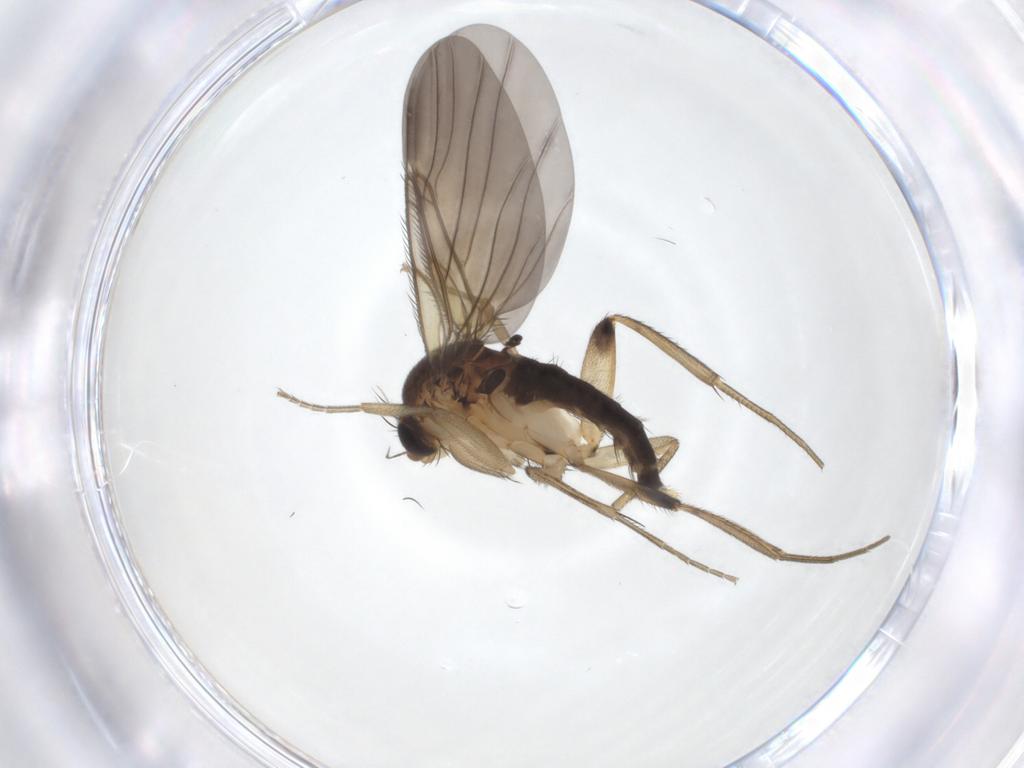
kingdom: Animalia
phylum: Arthropoda
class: Insecta
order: Diptera
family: Phoridae
